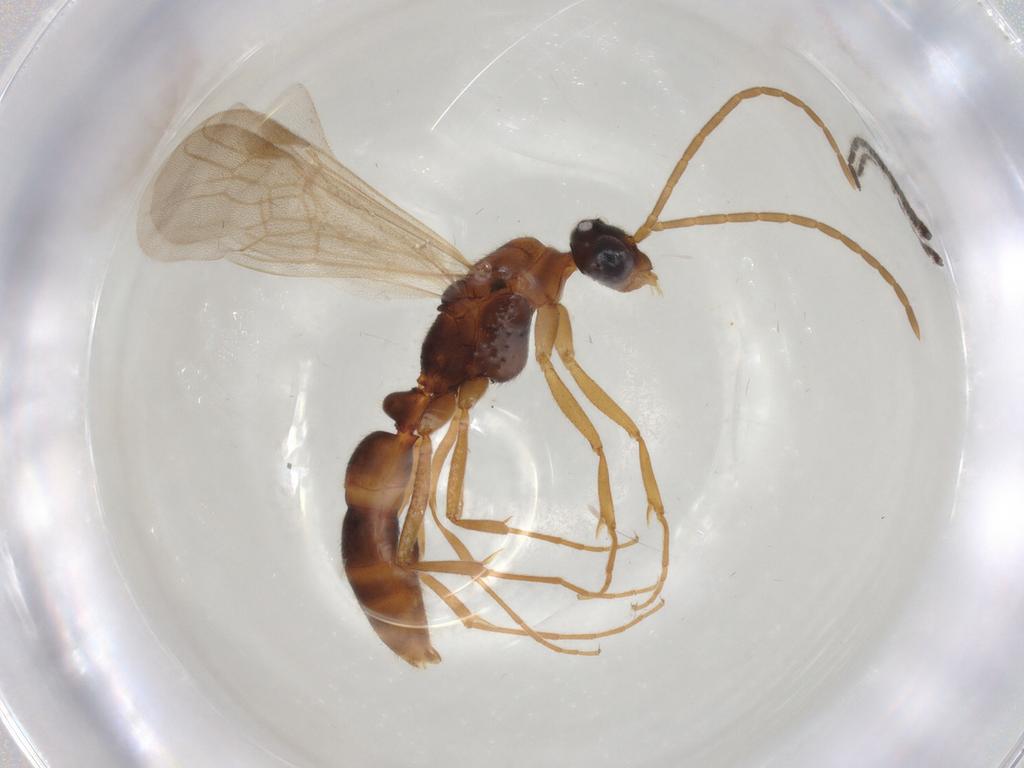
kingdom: Animalia
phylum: Arthropoda
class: Insecta
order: Diptera
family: Sciaridae
